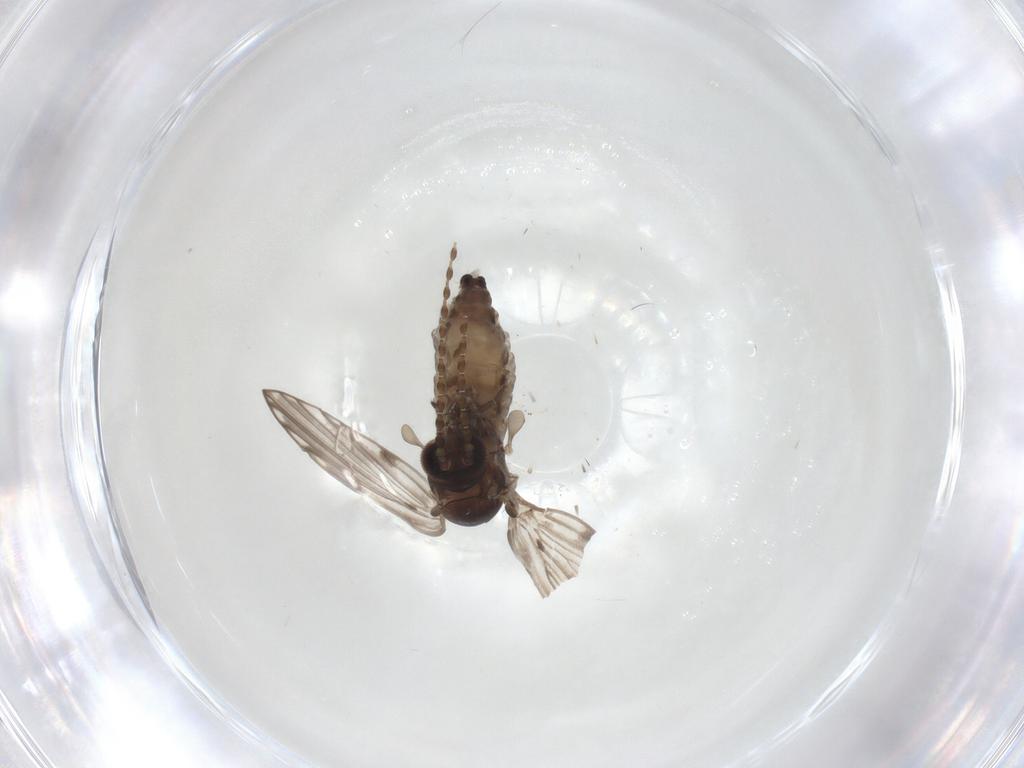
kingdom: Animalia
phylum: Arthropoda
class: Insecta
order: Diptera
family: Psychodidae
